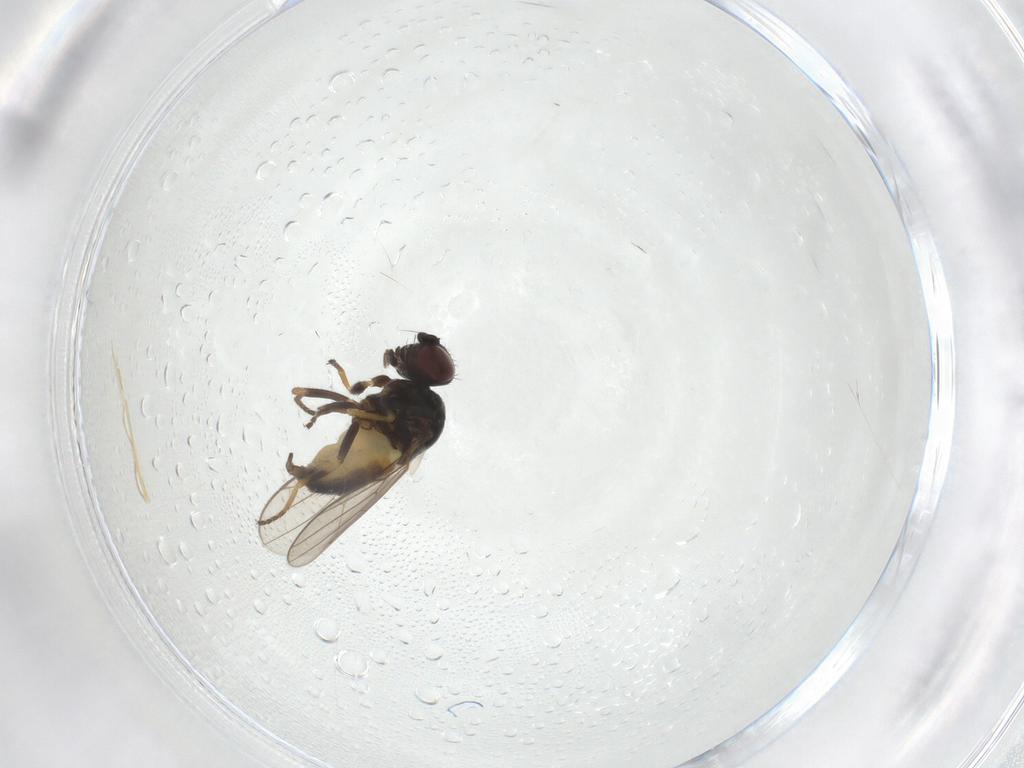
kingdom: Animalia
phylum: Arthropoda
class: Insecta
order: Diptera
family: Chloropidae
